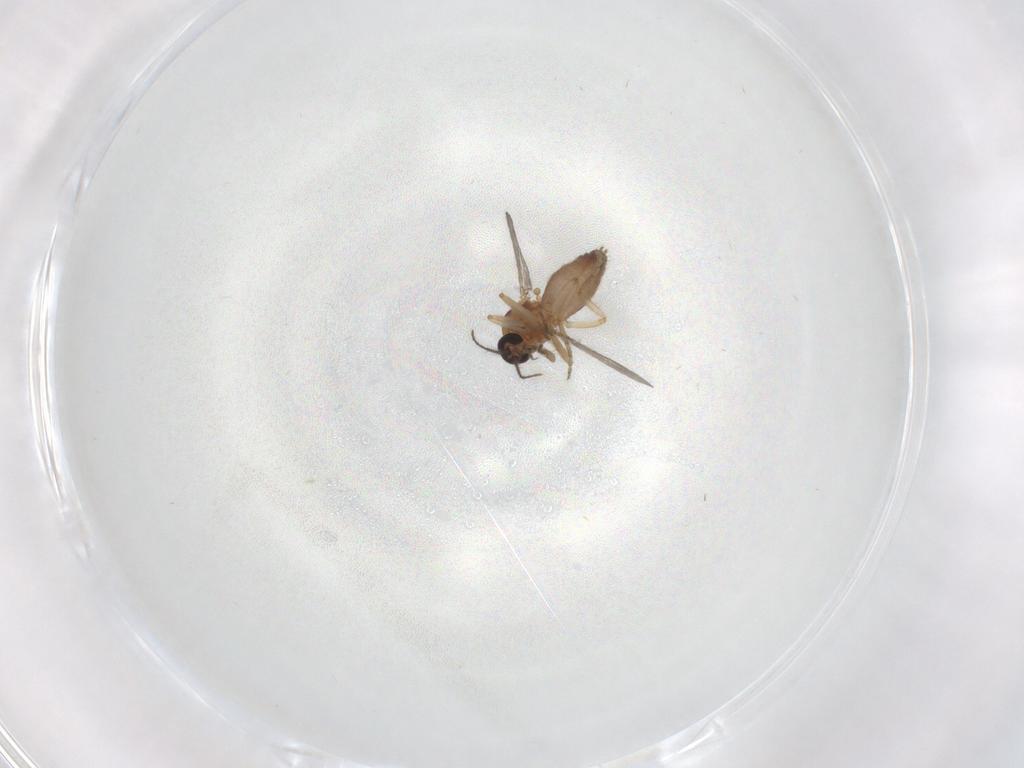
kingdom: Animalia
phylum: Arthropoda
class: Insecta
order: Diptera
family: Ceratopogonidae
